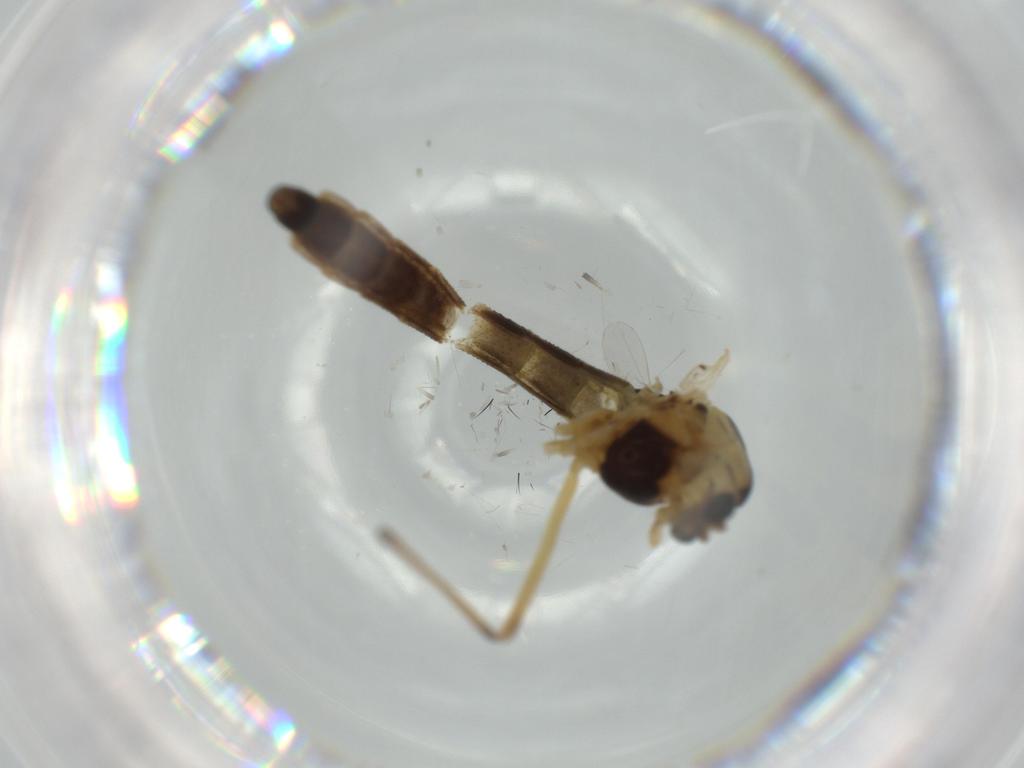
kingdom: Animalia
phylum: Arthropoda
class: Insecta
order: Diptera
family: Chironomidae
